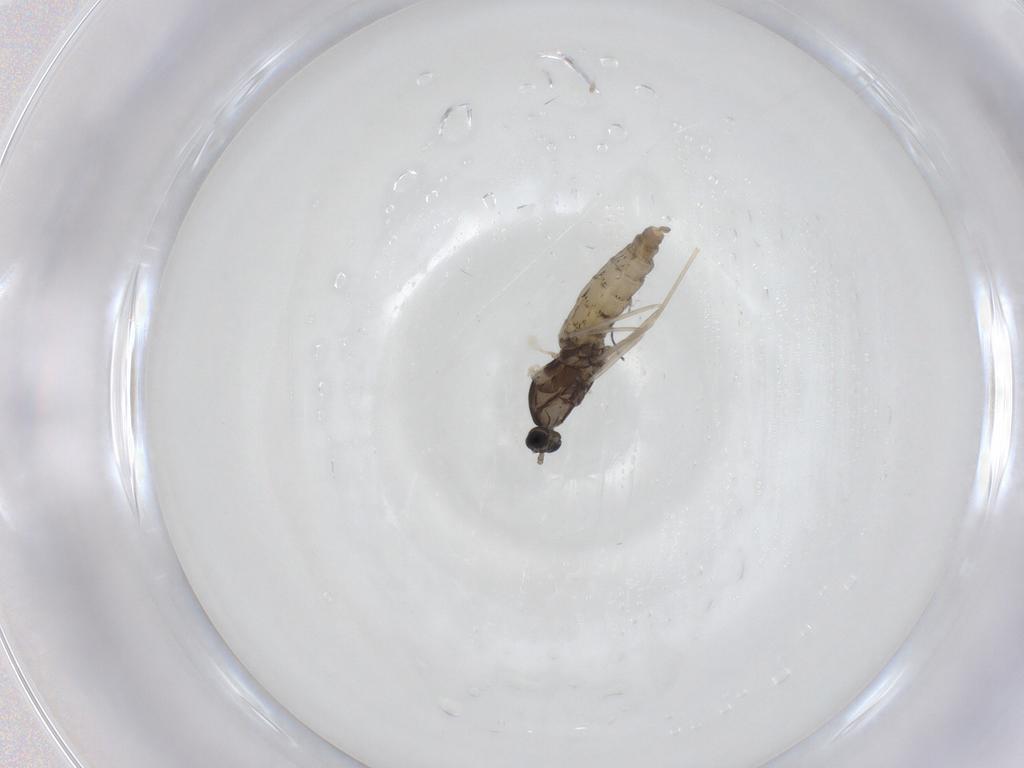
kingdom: Animalia
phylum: Arthropoda
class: Insecta
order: Diptera
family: Cecidomyiidae
